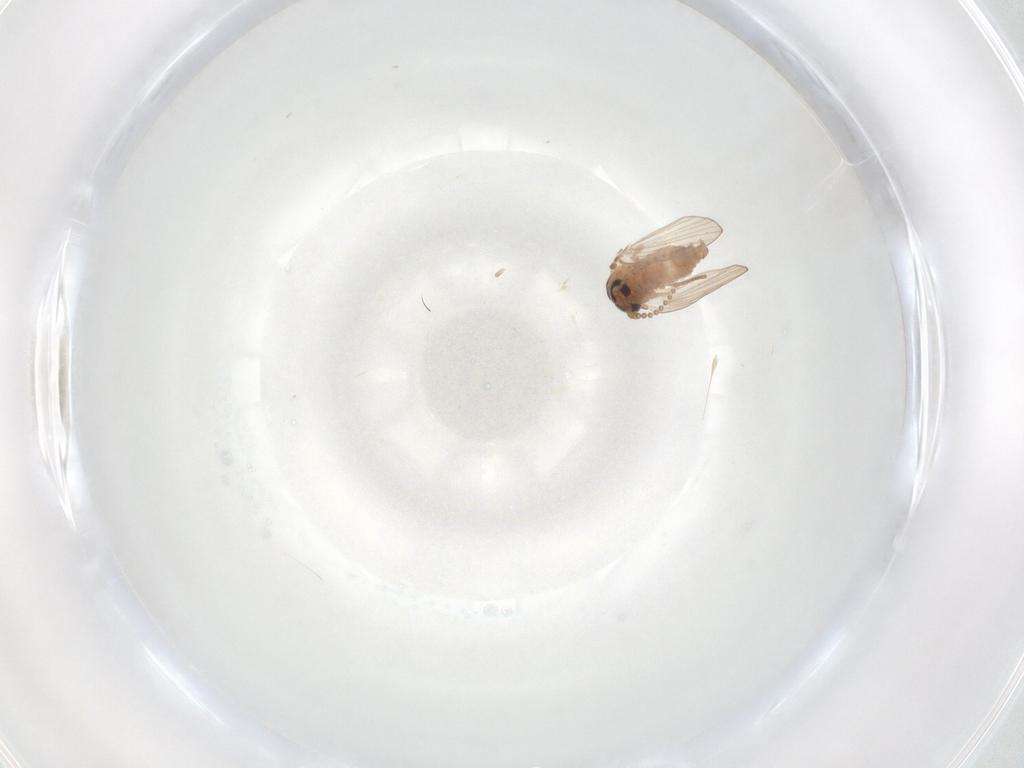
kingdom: Animalia
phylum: Arthropoda
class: Insecta
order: Diptera
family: Psychodidae
